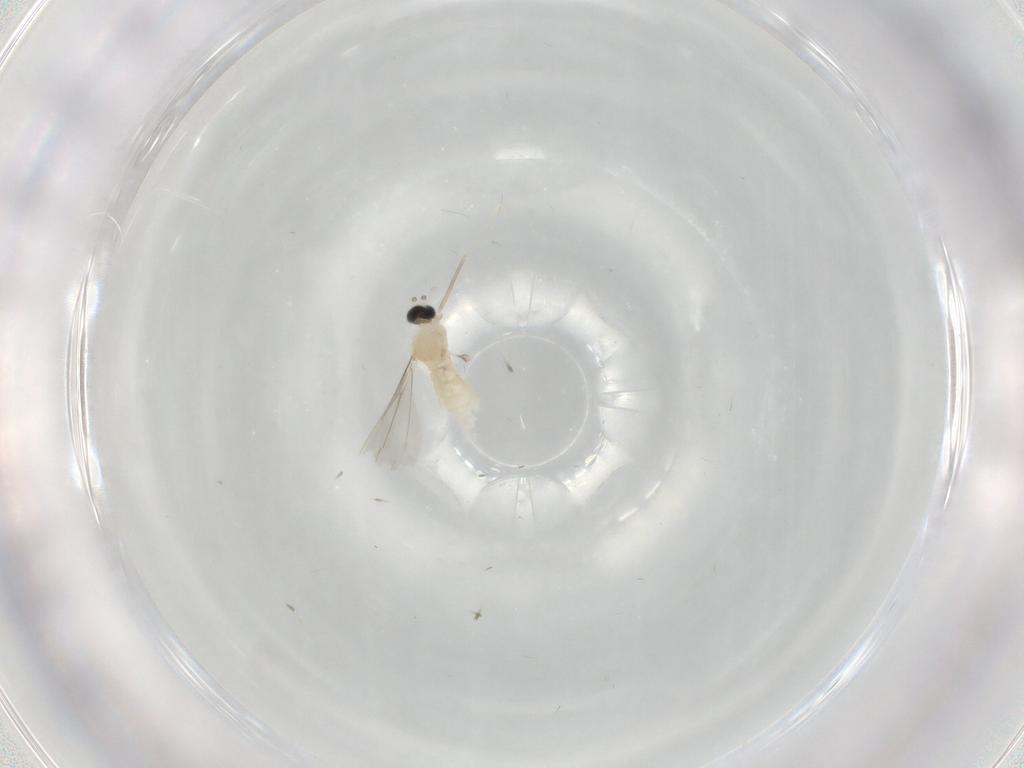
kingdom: Animalia
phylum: Arthropoda
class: Insecta
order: Diptera
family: Cecidomyiidae
